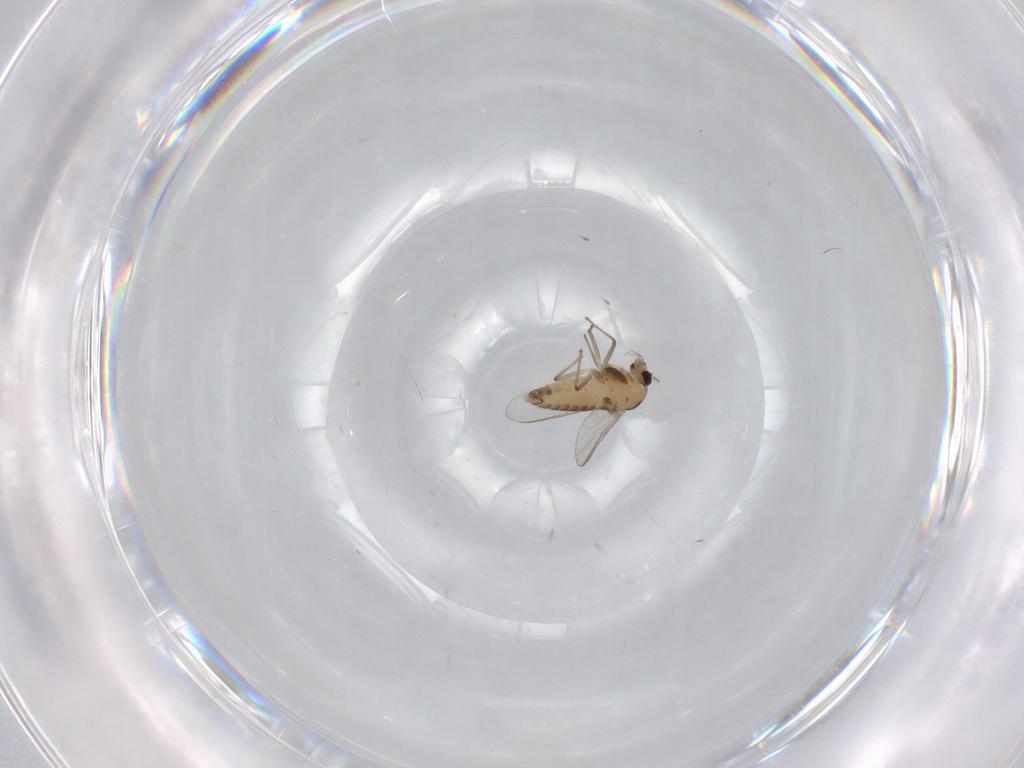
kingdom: Animalia
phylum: Arthropoda
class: Insecta
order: Diptera
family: Chironomidae
